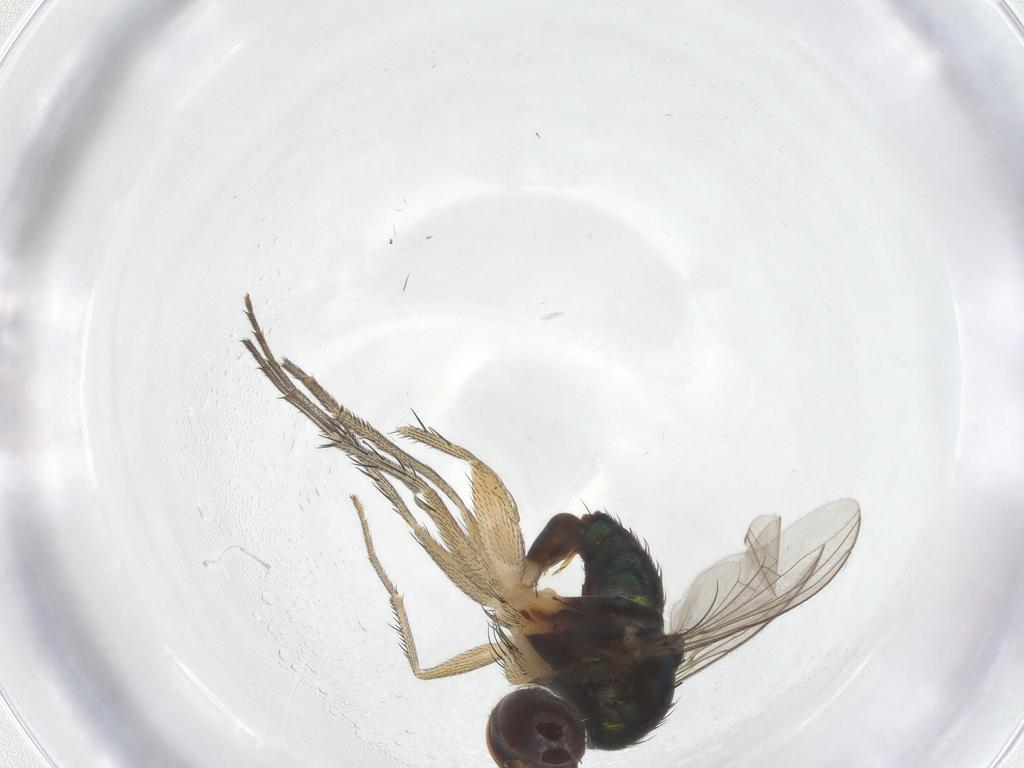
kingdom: Animalia
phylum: Arthropoda
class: Insecta
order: Diptera
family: Dolichopodidae
